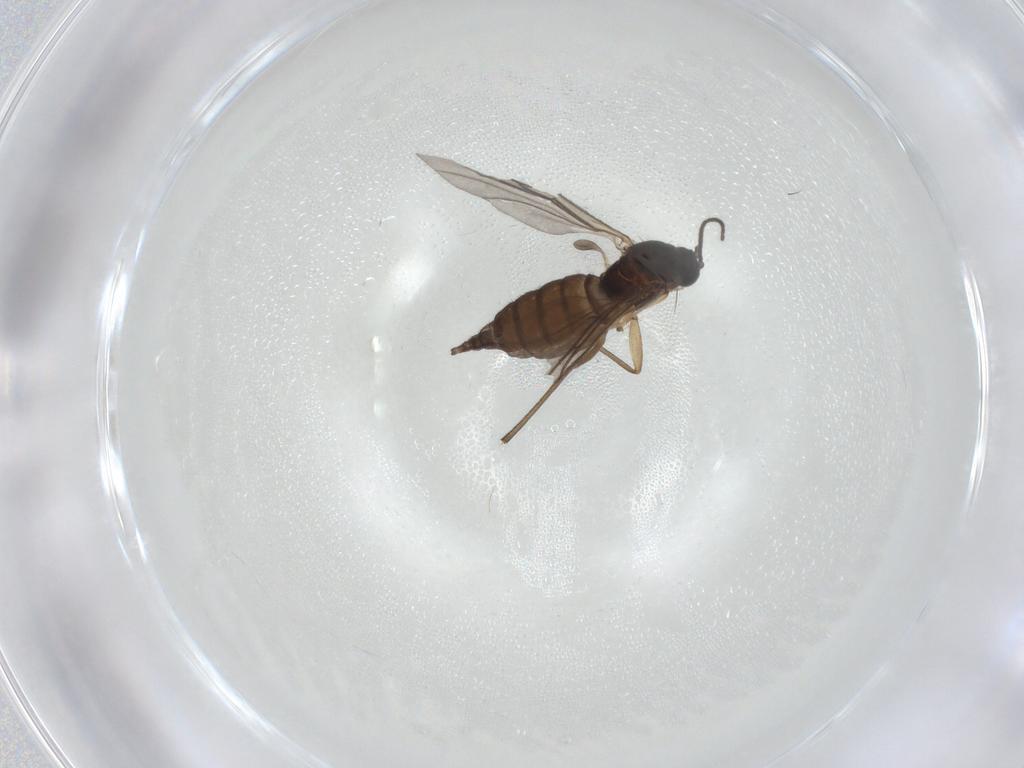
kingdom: Animalia
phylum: Arthropoda
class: Insecta
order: Diptera
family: Sciaridae
